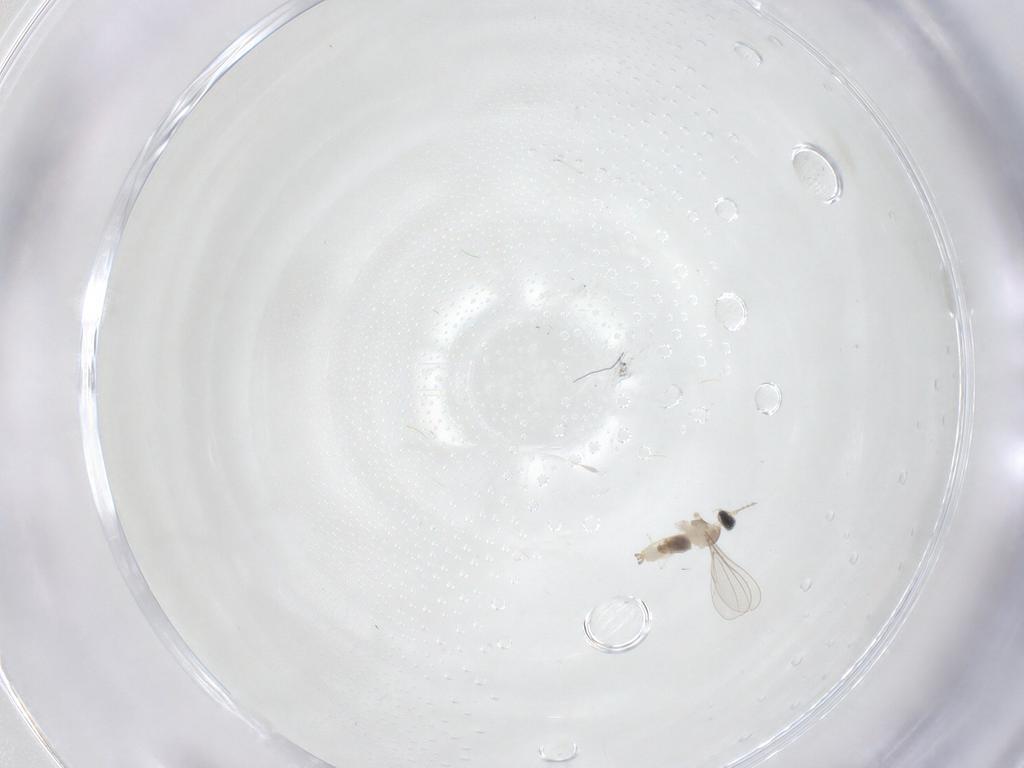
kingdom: Animalia
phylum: Arthropoda
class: Insecta
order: Diptera
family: Cecidomyiidae
